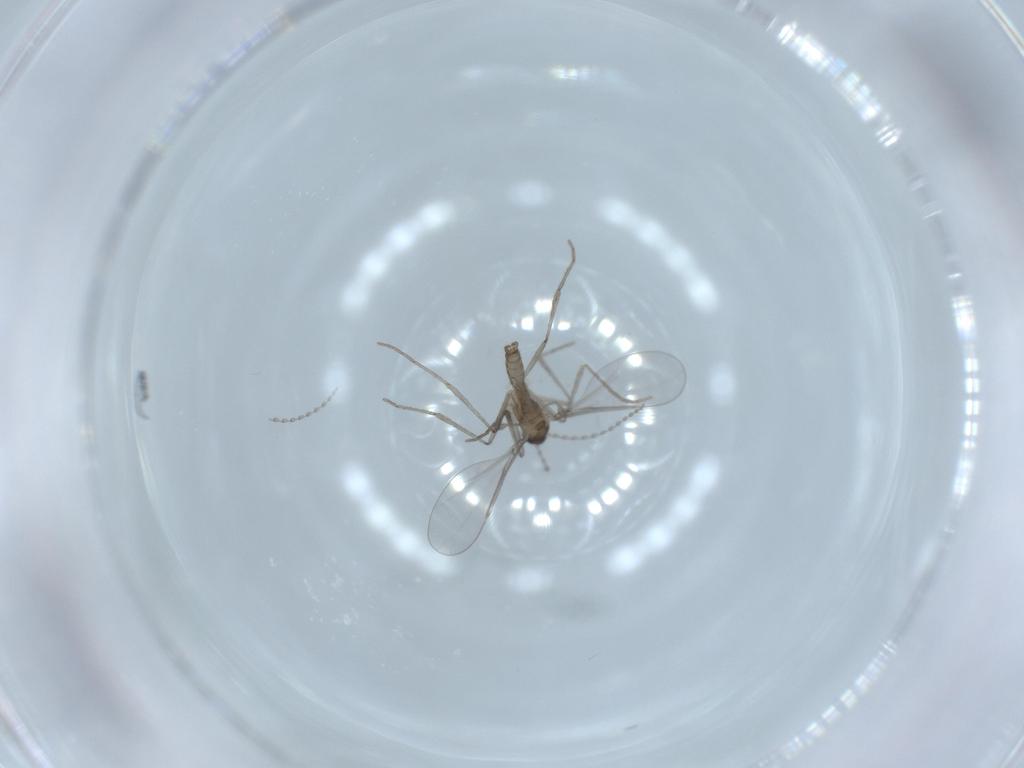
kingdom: Animalia
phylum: Arthropoda
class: Insecta
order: Diptera
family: Cecidomyiidae
